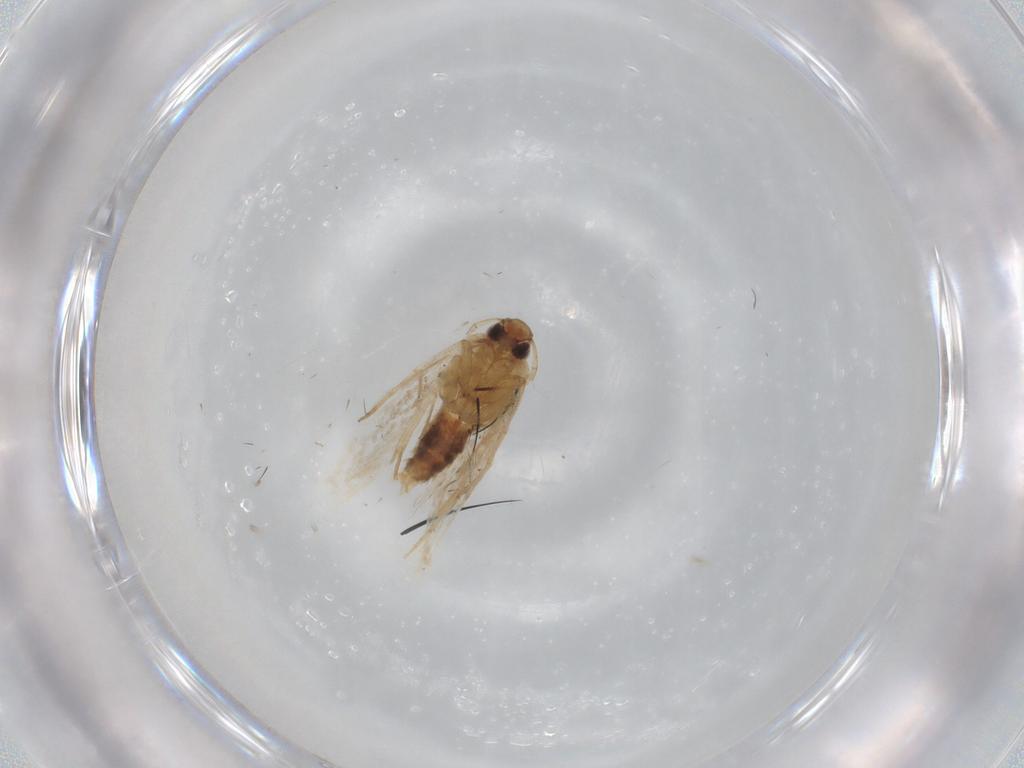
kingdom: Animalia
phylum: Arthropoda
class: Insecta
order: Lepidoptera
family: Cosmopterigidae
